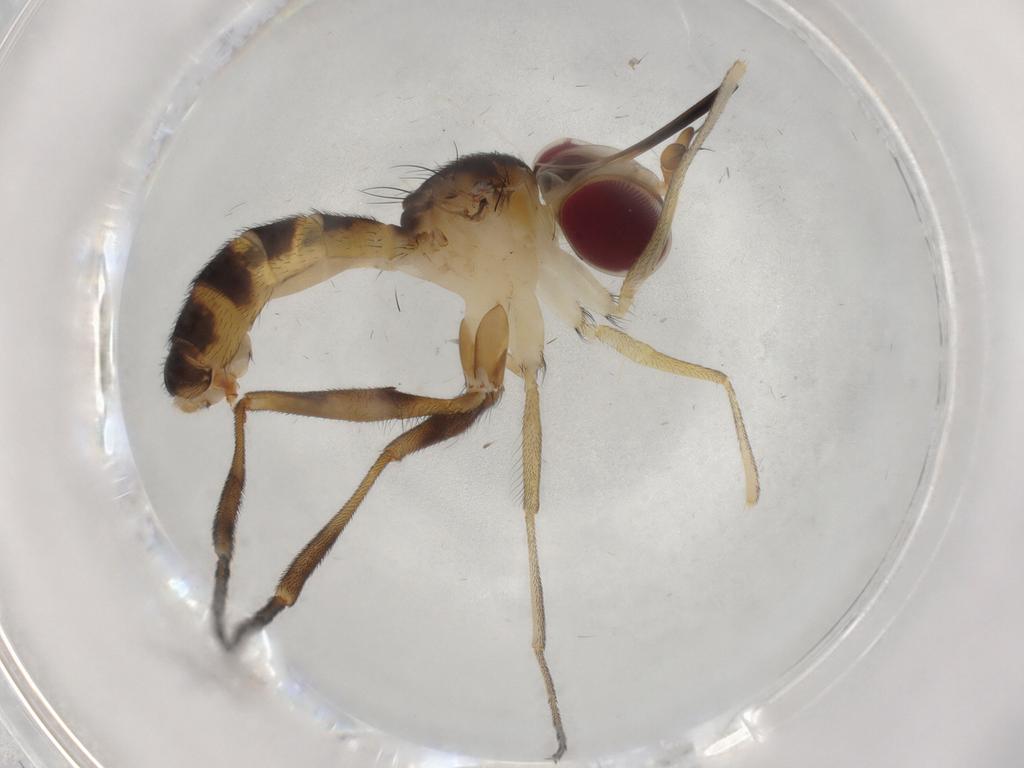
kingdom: Animalia
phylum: Arthropoda
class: Insecta
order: Diptera
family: Conopidae
